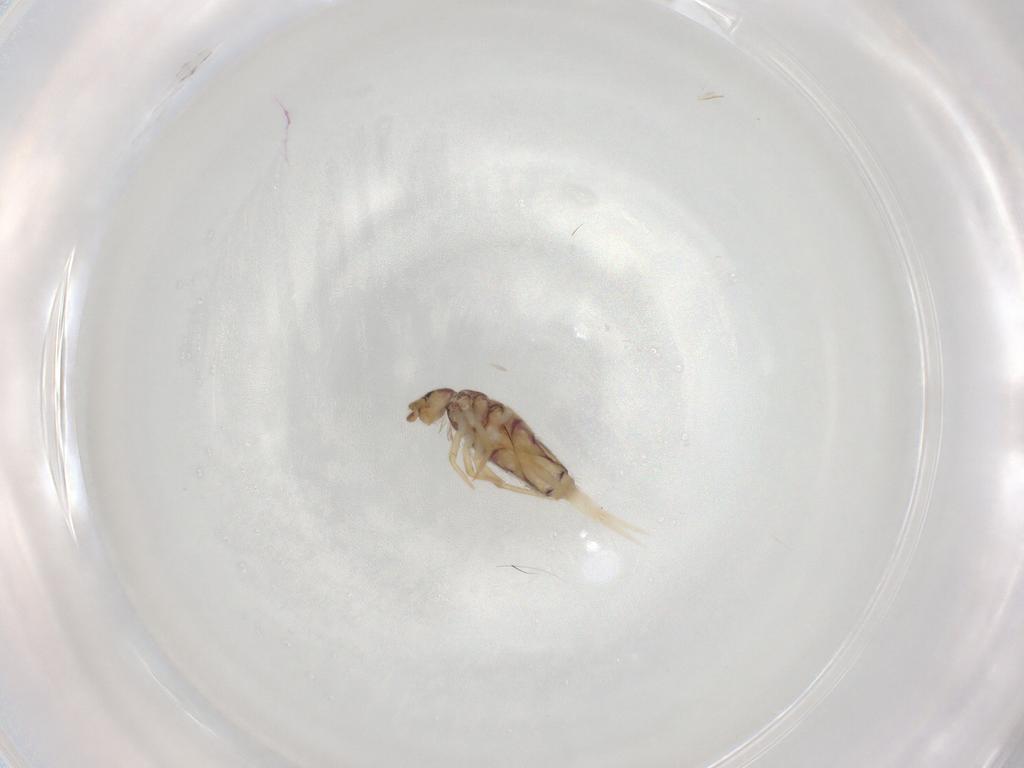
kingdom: Animalia
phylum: Arthropoda
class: Collembola
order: Poduromorpha
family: Hypogastruridae
